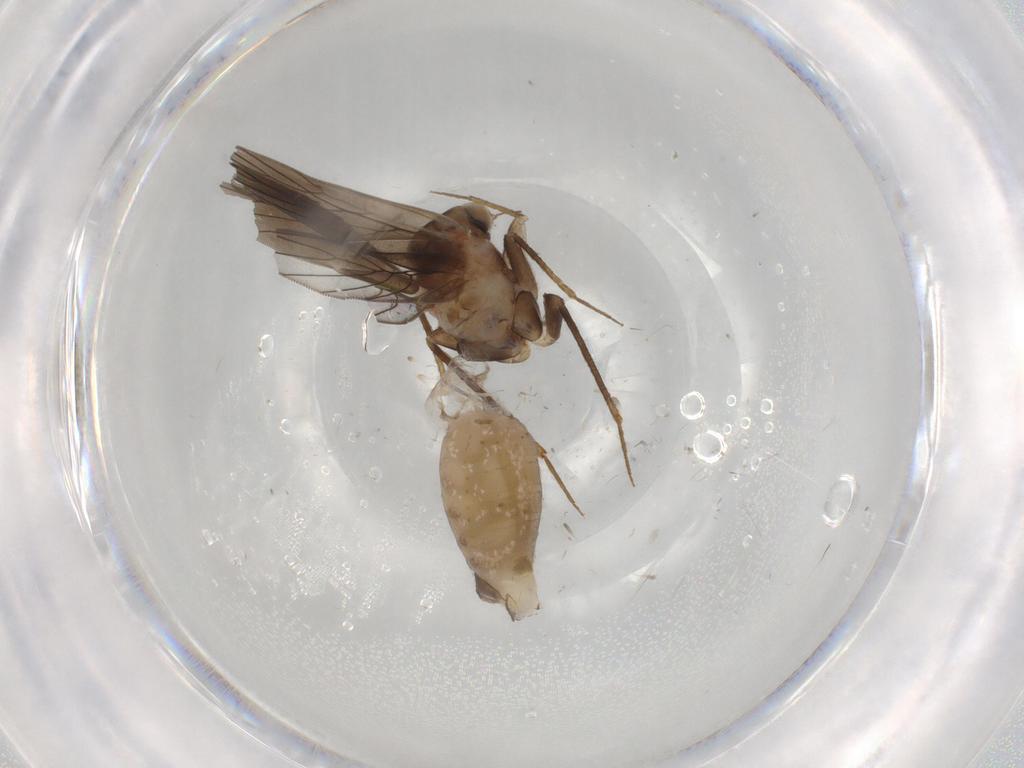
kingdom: Animalia
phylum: Arthropoda
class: Insecta
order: Psocodea
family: Lepidopsocidae
